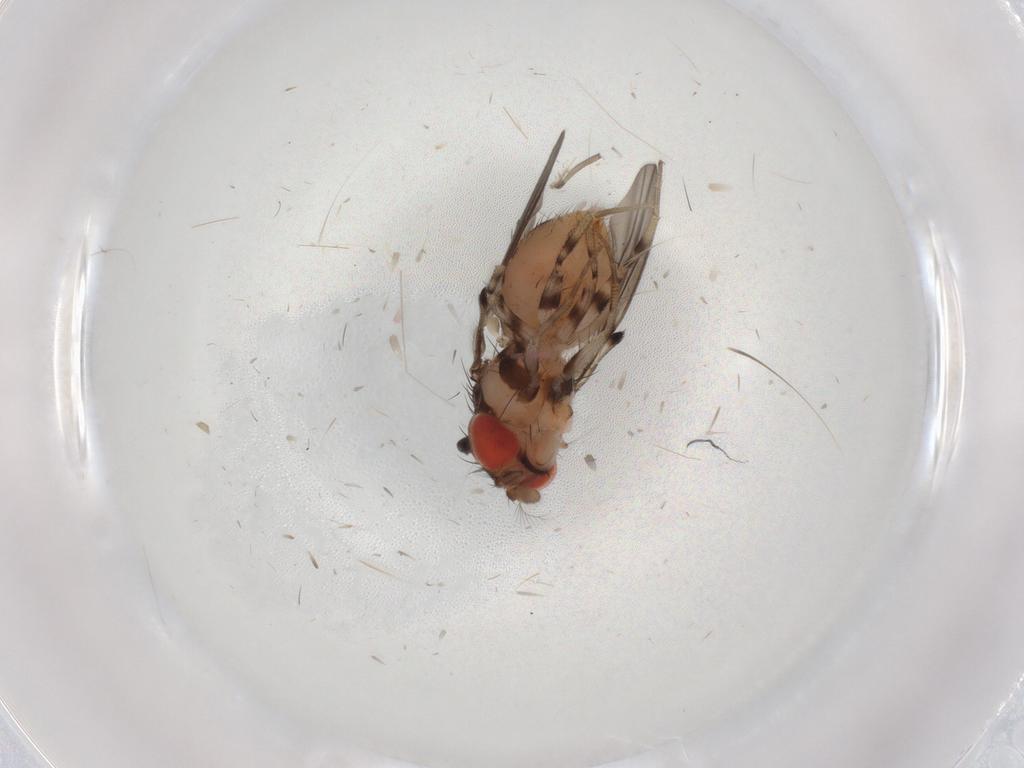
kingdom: Animalia
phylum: Arthropoda
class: Insecta
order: Diptera
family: Drosophilidae
